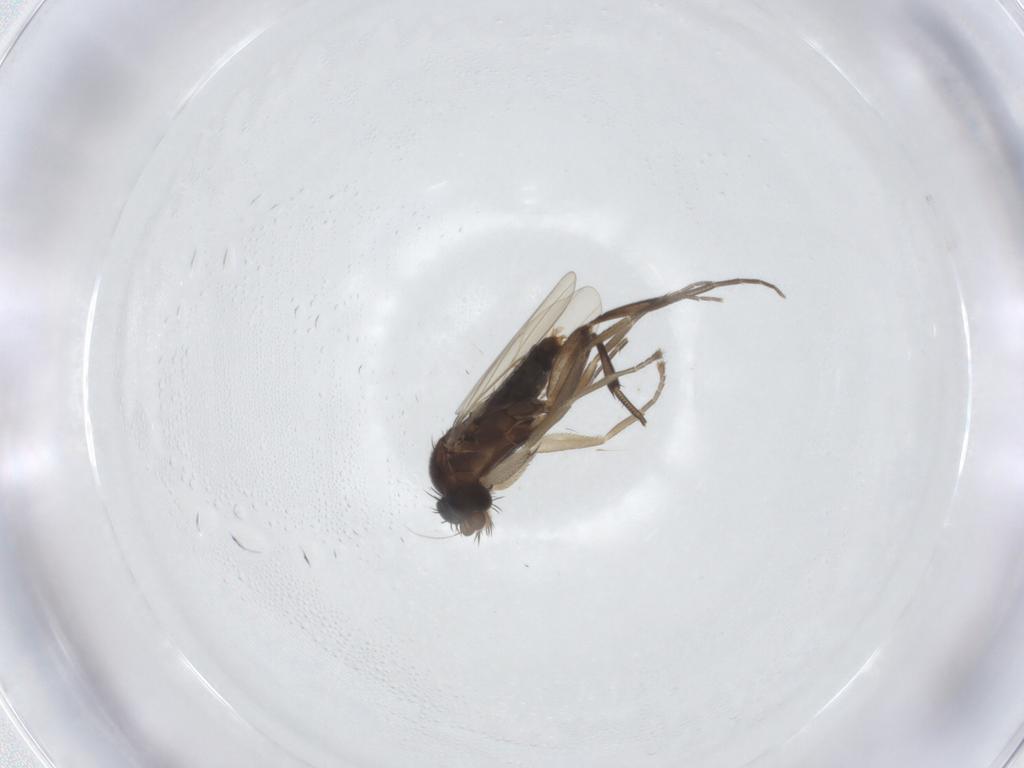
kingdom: Animalia
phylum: Arthropoda
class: Insecta
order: Diptera
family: Chironomidae
